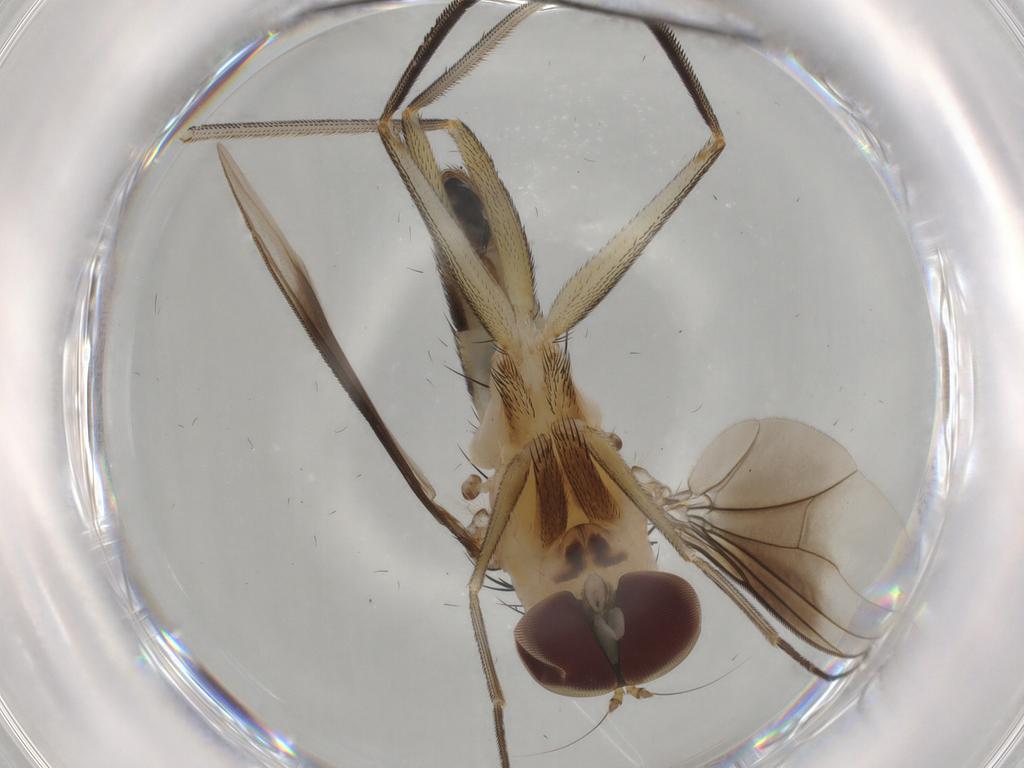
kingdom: Animalia
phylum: Arthropoda
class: Insecta
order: Diptera
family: Dolichopodidae
